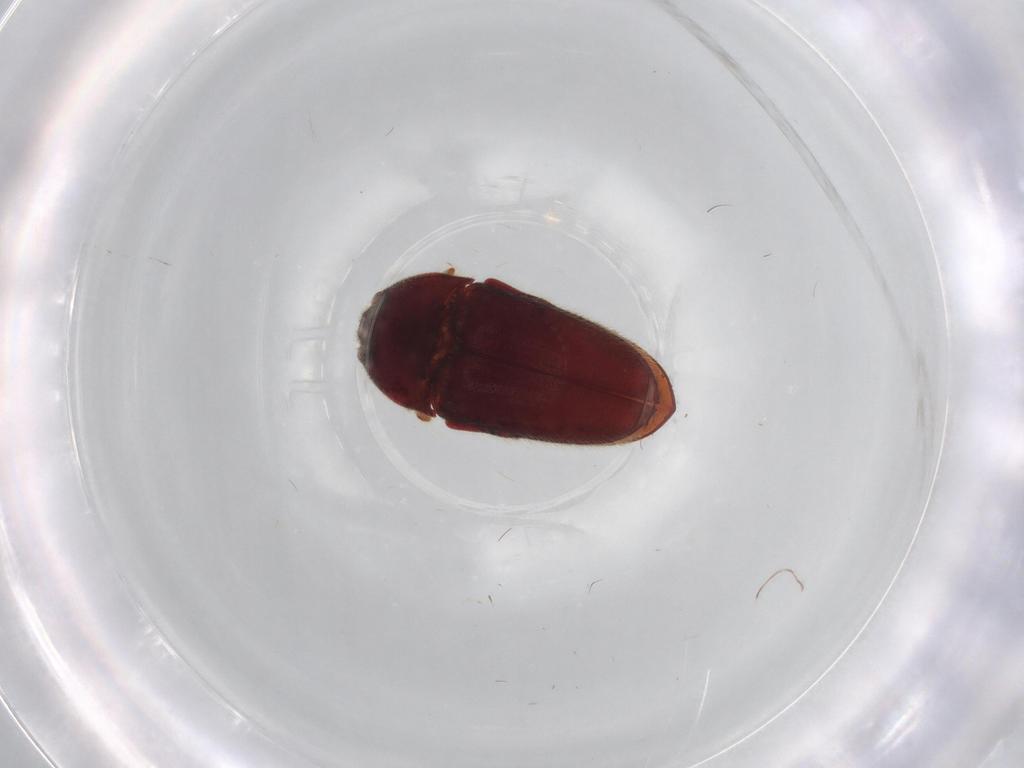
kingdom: Animalia
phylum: Arthropoda
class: Insecta
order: Coleoptera
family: Throscidae
